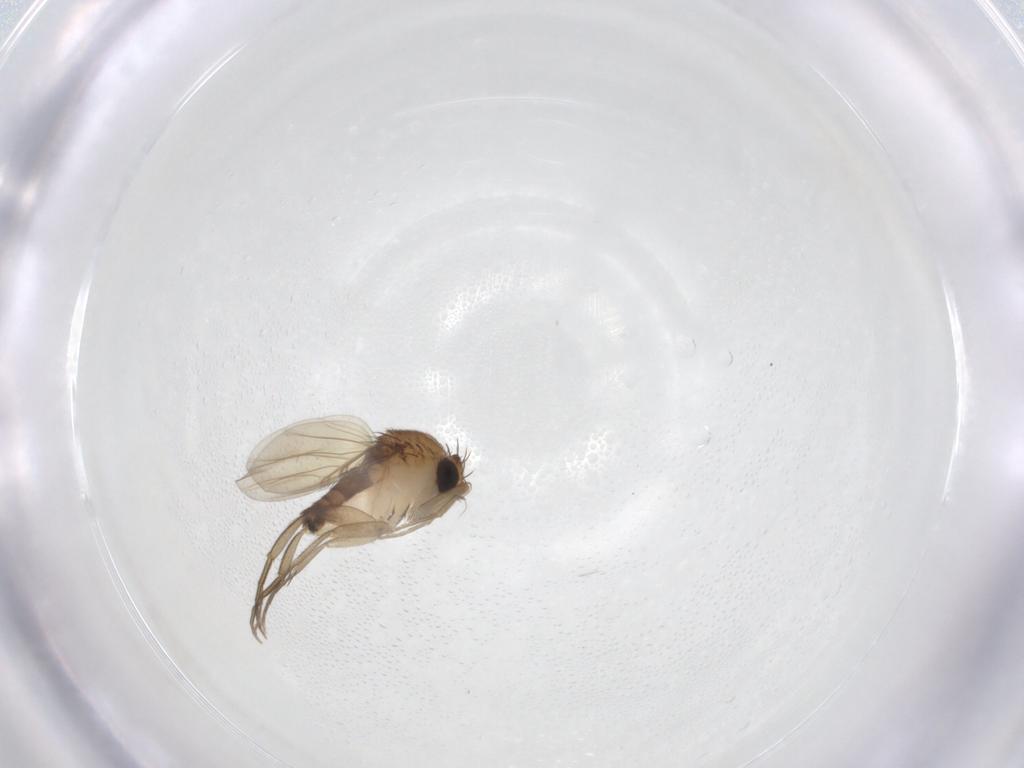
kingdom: Animalia
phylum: Arthropoda
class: Insecta
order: Diptera
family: Phoridae
